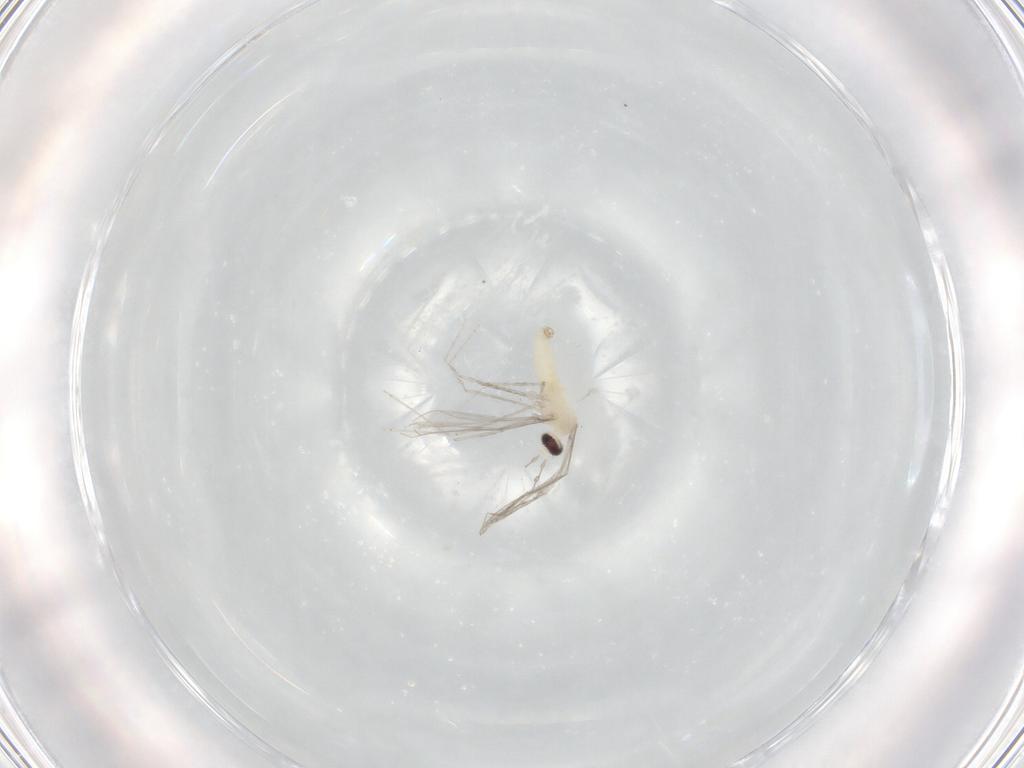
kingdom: Animalia
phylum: Arthropoda
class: Insecta
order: Diptera
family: Cecidomyiidae
